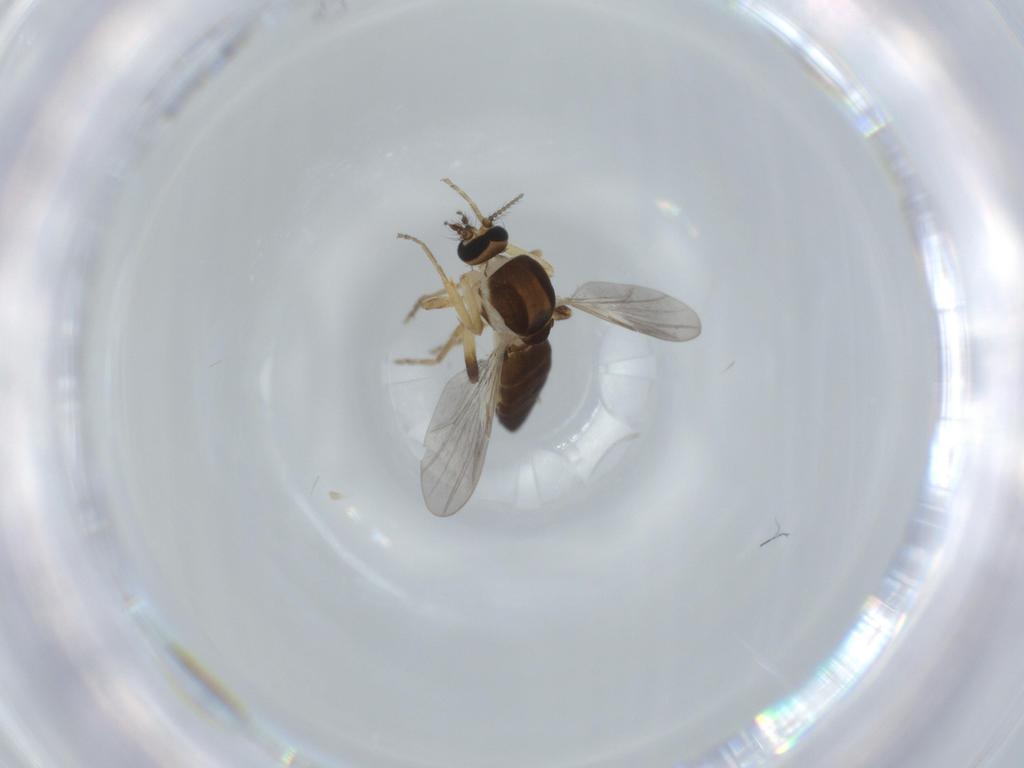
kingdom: Animalia
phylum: Arthropoda
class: Insecta
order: Diptera
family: Ceratopogonidae
